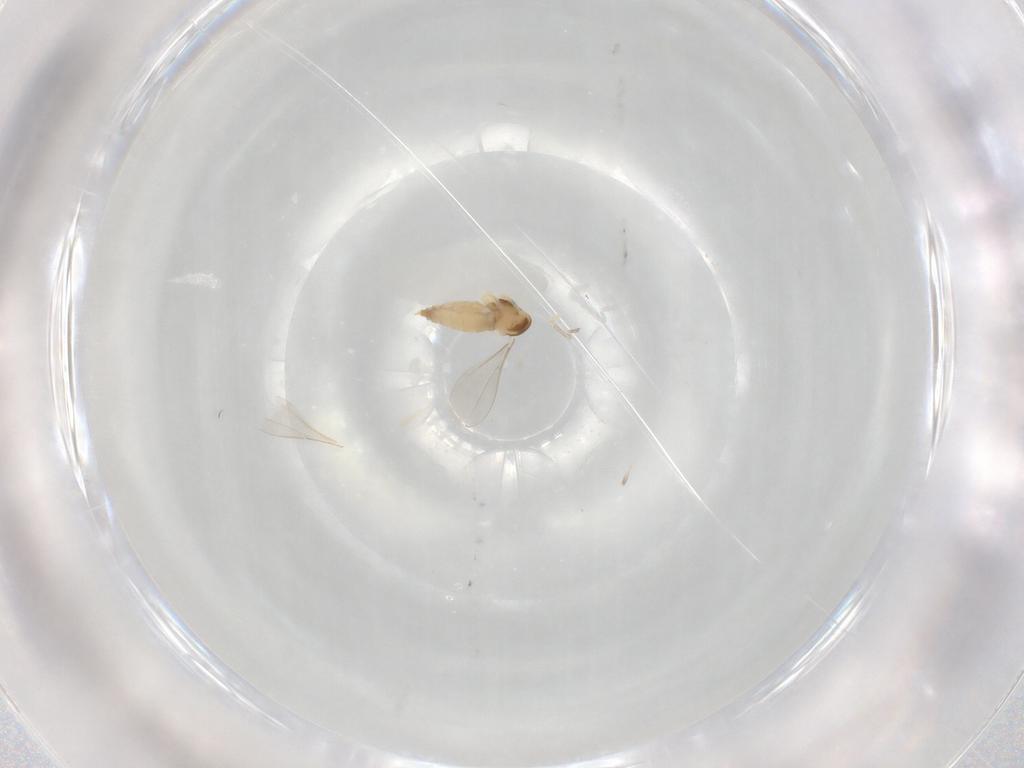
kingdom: Animalia
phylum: Arthropoda
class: Insecta
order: Diptera
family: Psychodidae
